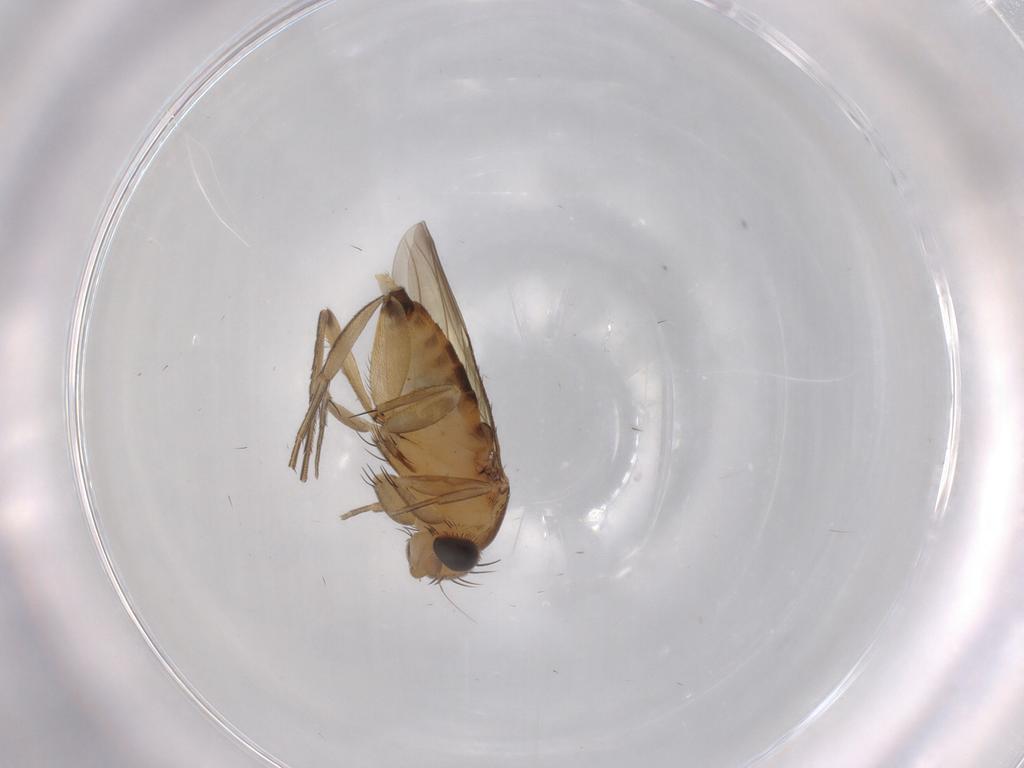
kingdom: Animalia
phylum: Arthropoda
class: Insecta
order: Diptera
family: Phoridae
